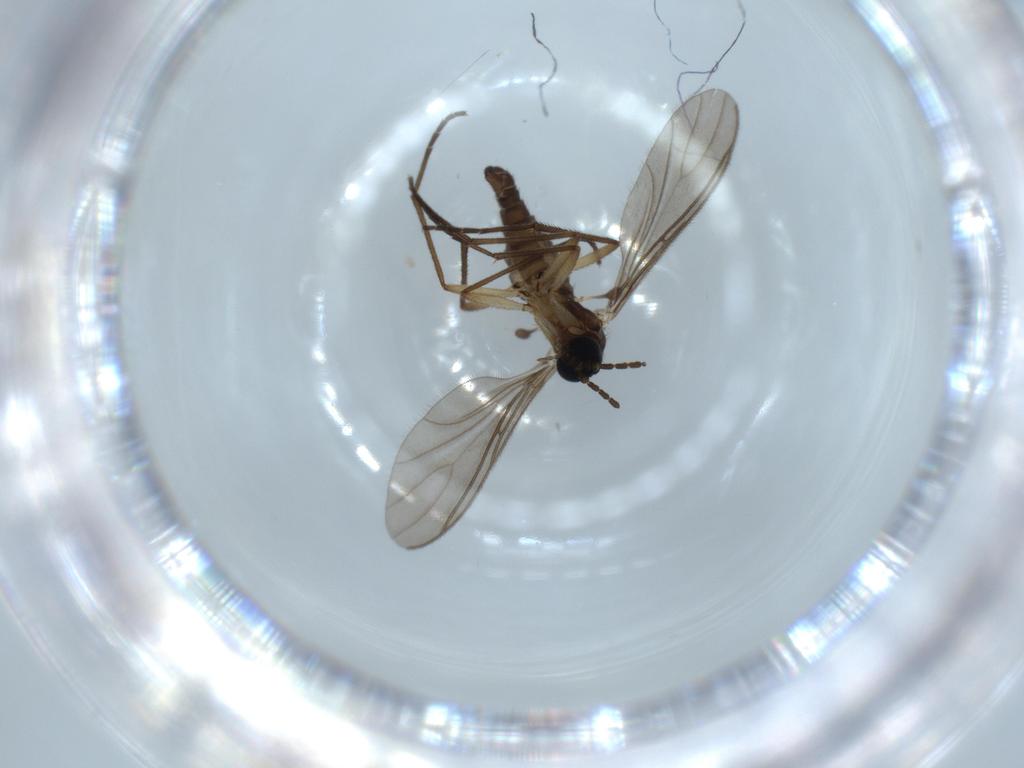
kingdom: Animalia
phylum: Arthropoda
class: Insecta
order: Diptera
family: Sciaridae
